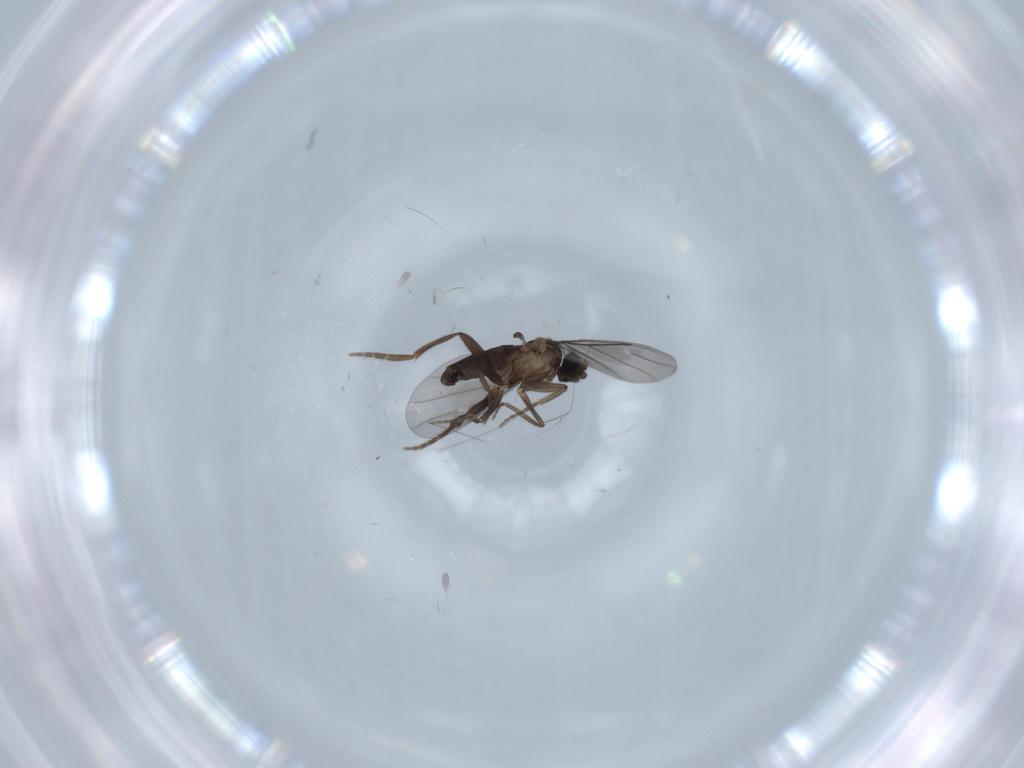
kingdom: Animalia
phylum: Arthropoda
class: Insecta
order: Diptera
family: Phoridae
